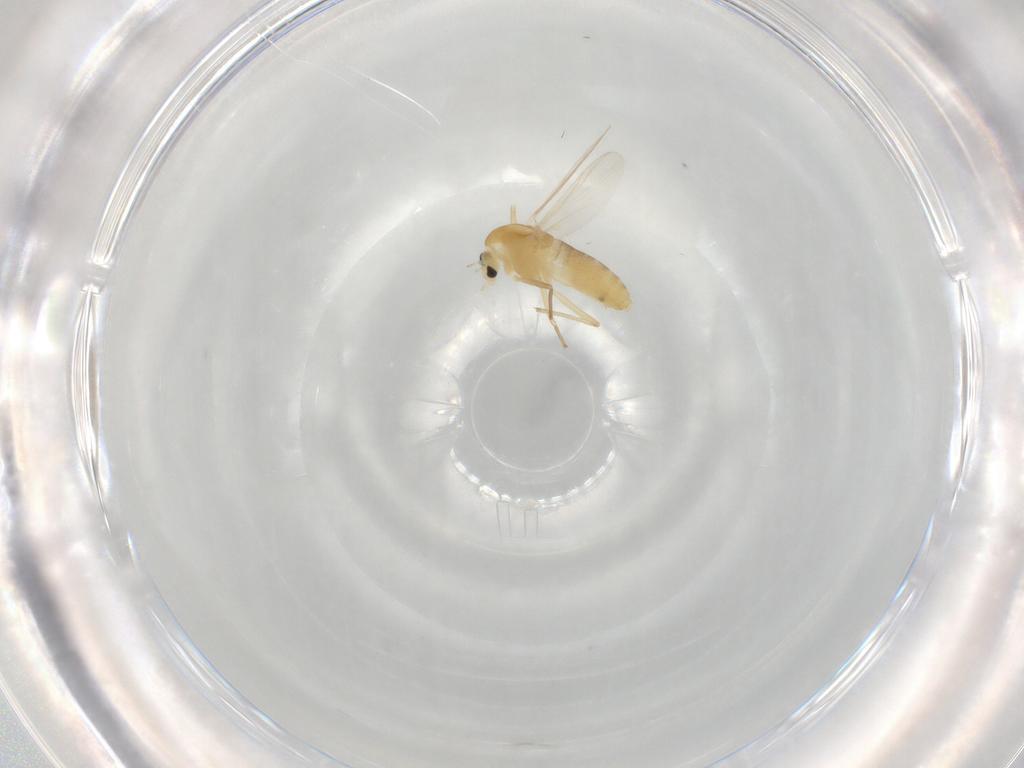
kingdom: Animalia
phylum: Arthropoda
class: Insecta
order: Diptera
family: Chironomidae
